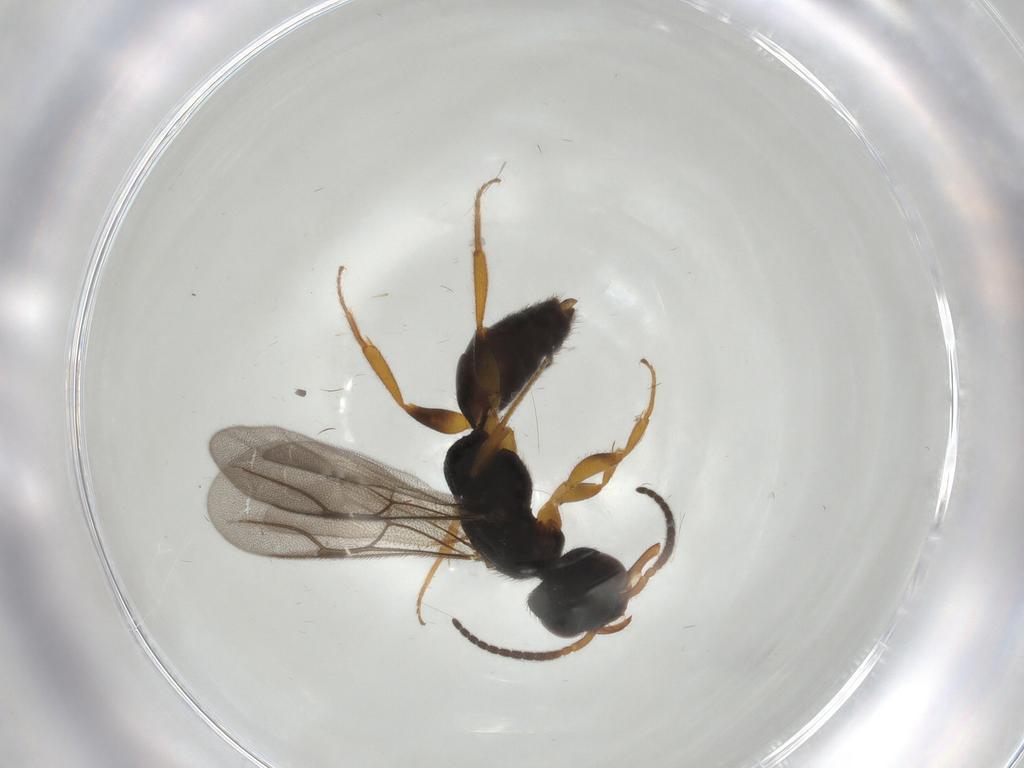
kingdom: Animalia
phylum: Arthropoda
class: Insecta
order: Hymenoptera
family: Bethylidae
